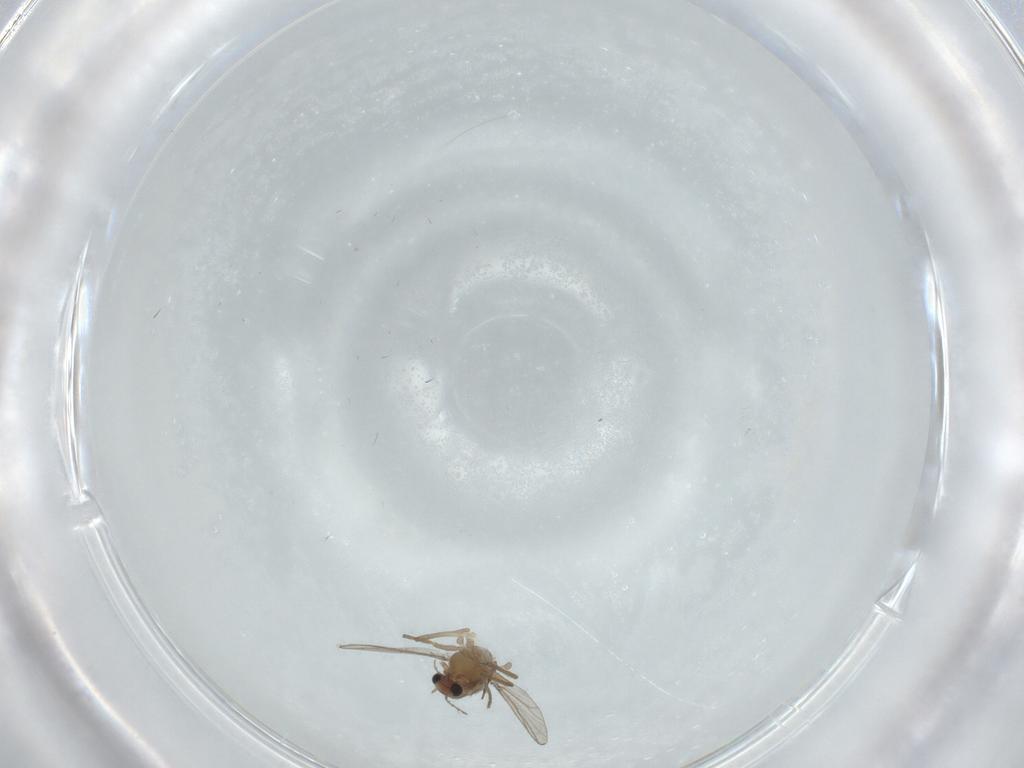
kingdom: Animalia
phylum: Arthropoda
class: Insecta
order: Diptera
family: Chironomidae
